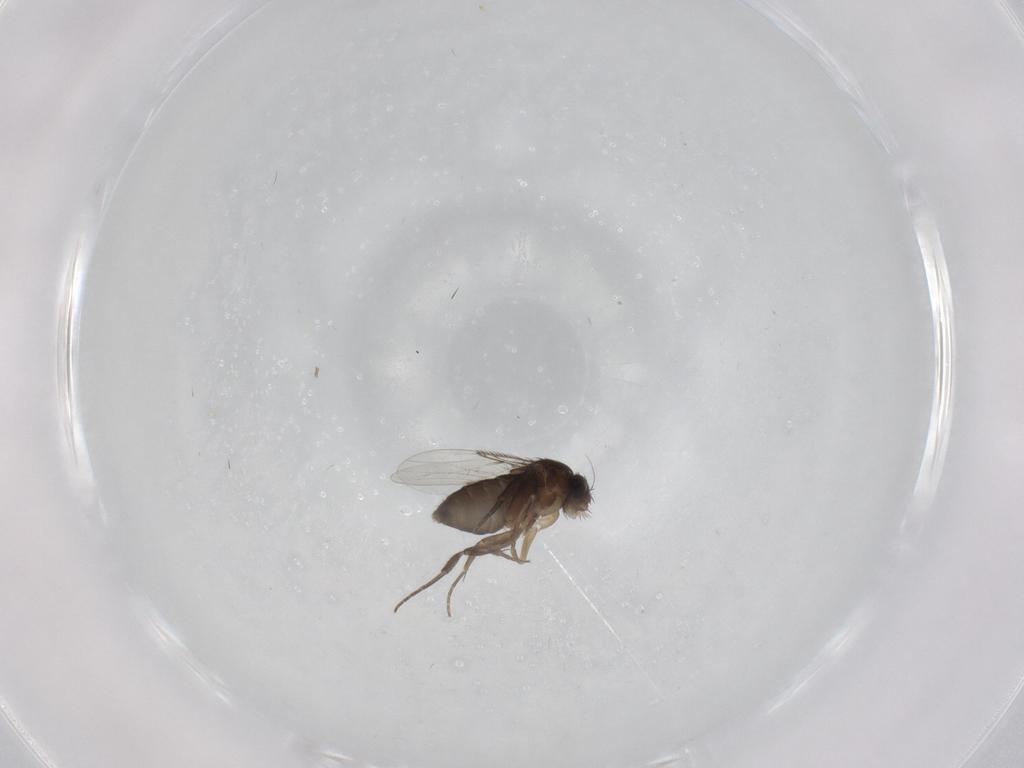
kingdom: Animalia
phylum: Arthropoda
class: Insecta
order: Diptera
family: Phoridae
